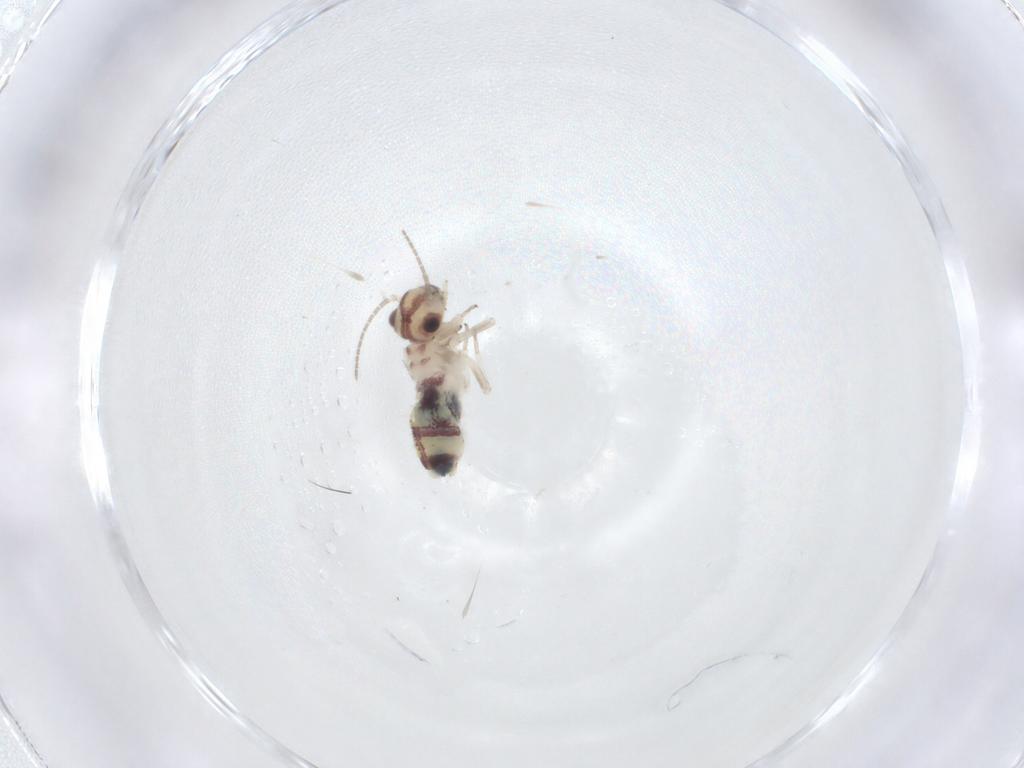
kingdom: Animalia
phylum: Arthropoda
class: Insecta
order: Psocodea
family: Psocidae
